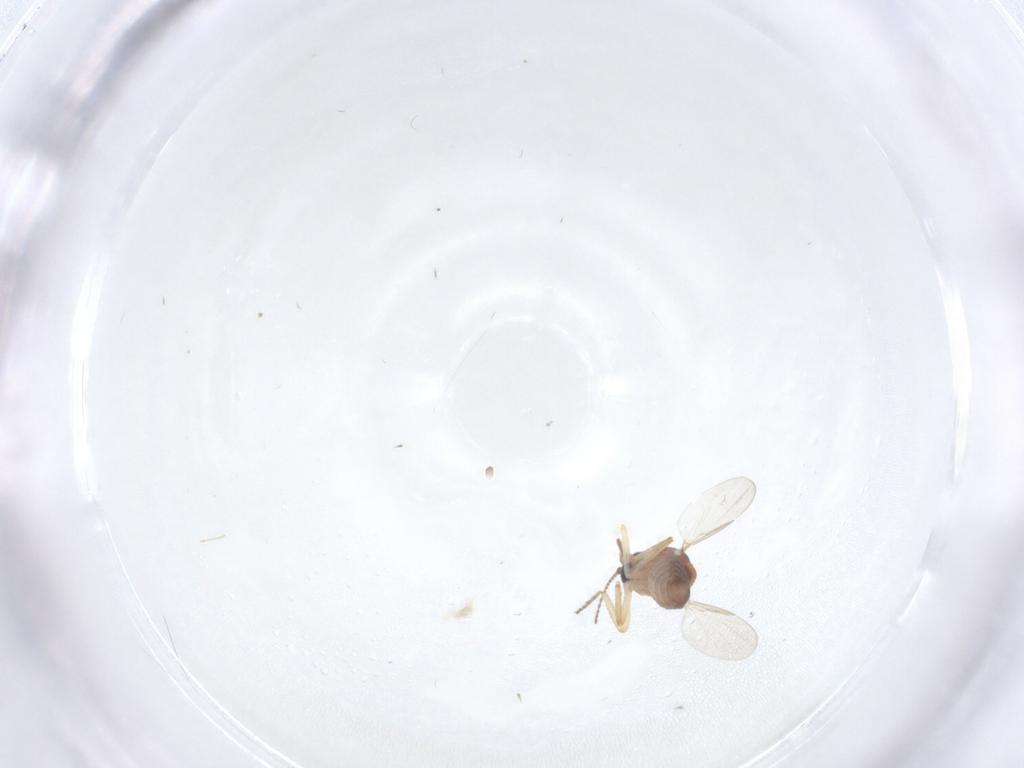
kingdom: Animalia
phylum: Arthropoda
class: Insecta
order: Diptera
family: Ceratopogonidae
